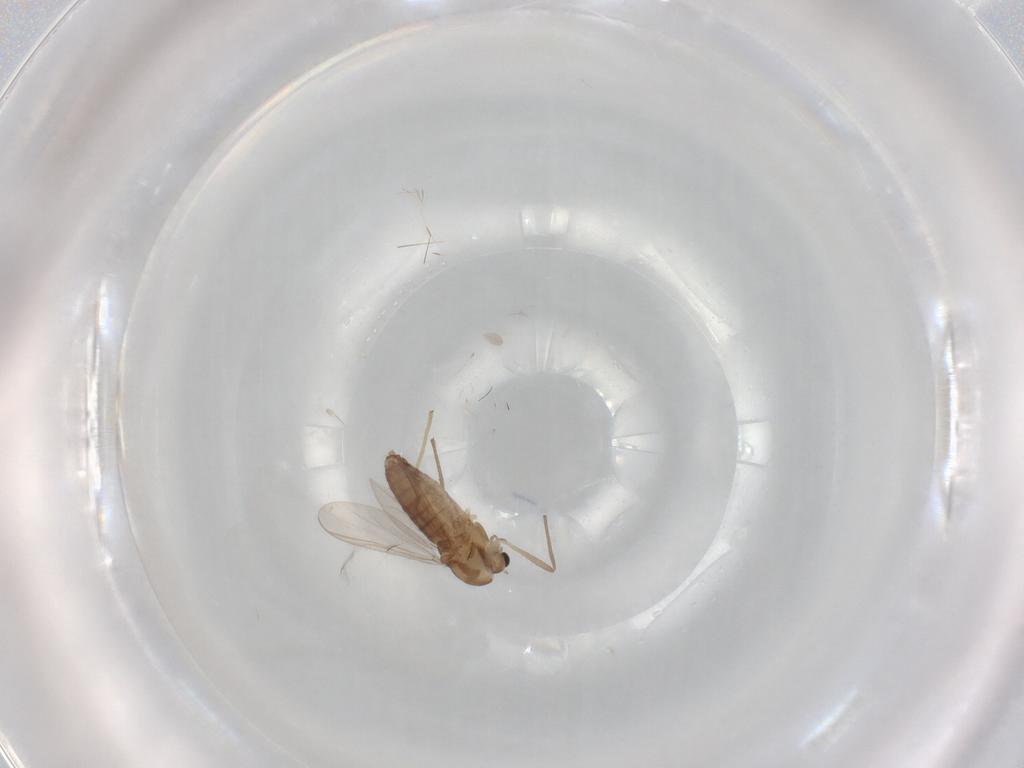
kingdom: Animalia
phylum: Arthropoda
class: Insecta
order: Diptera
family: Chironomidae
